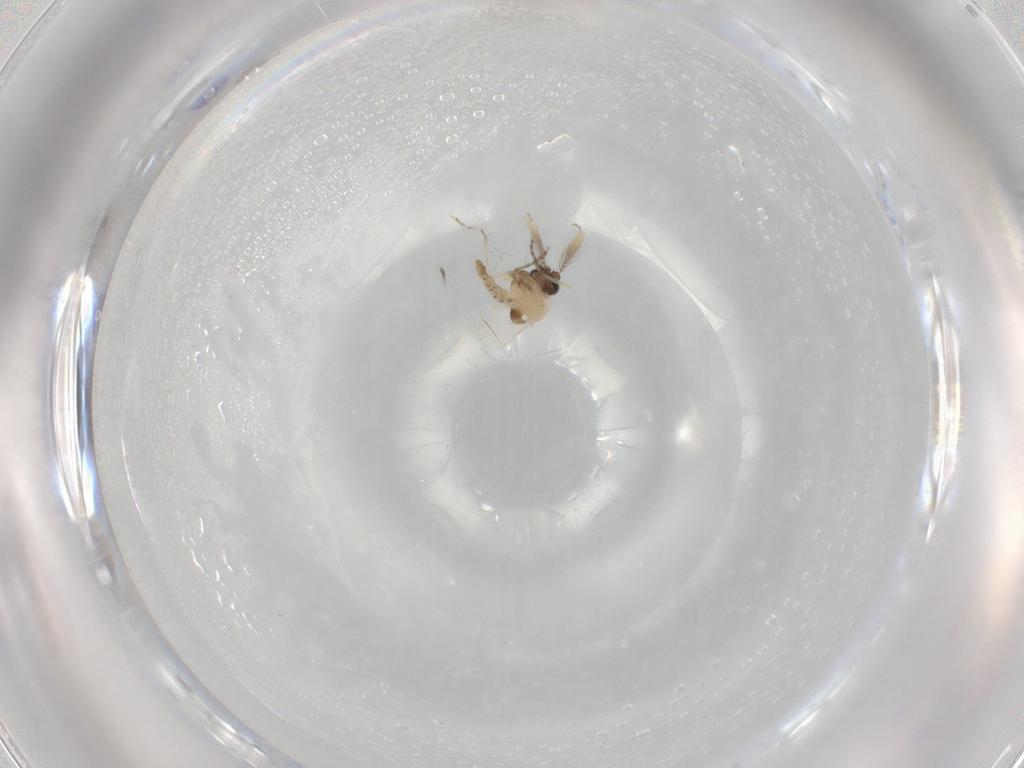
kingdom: Animalia
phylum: Arthropoda
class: Insecta
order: Diptera
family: Ceratopogonidae
